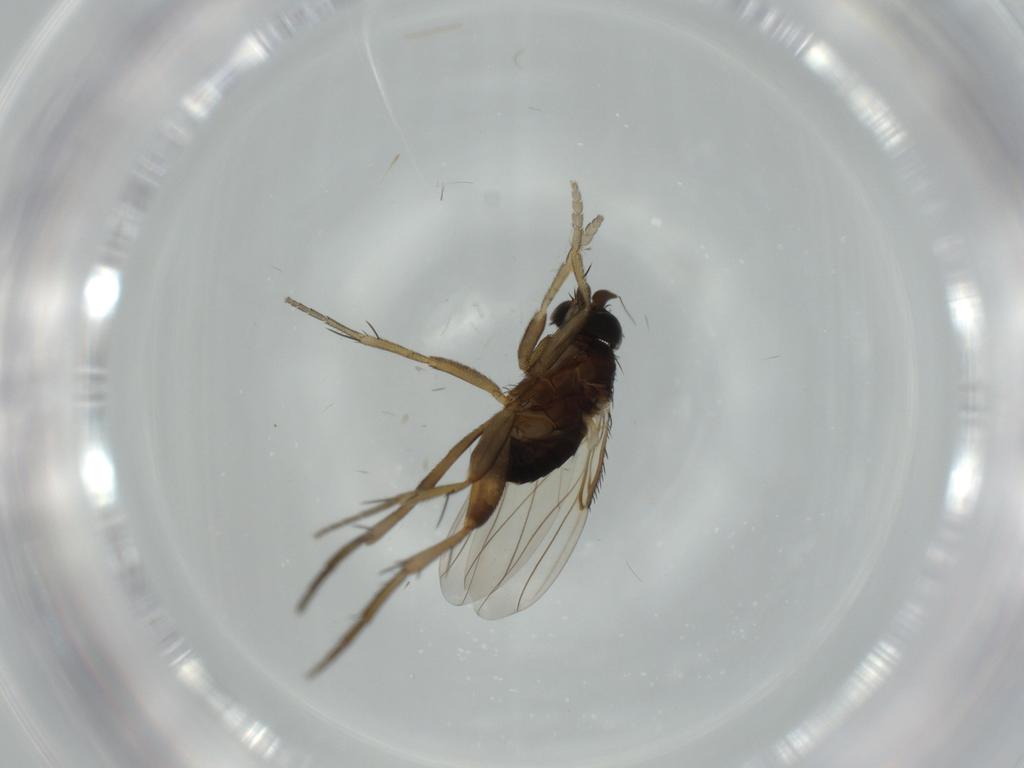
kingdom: Animalia
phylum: Arthropoda
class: Insecta
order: Diptera
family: Phoridae
